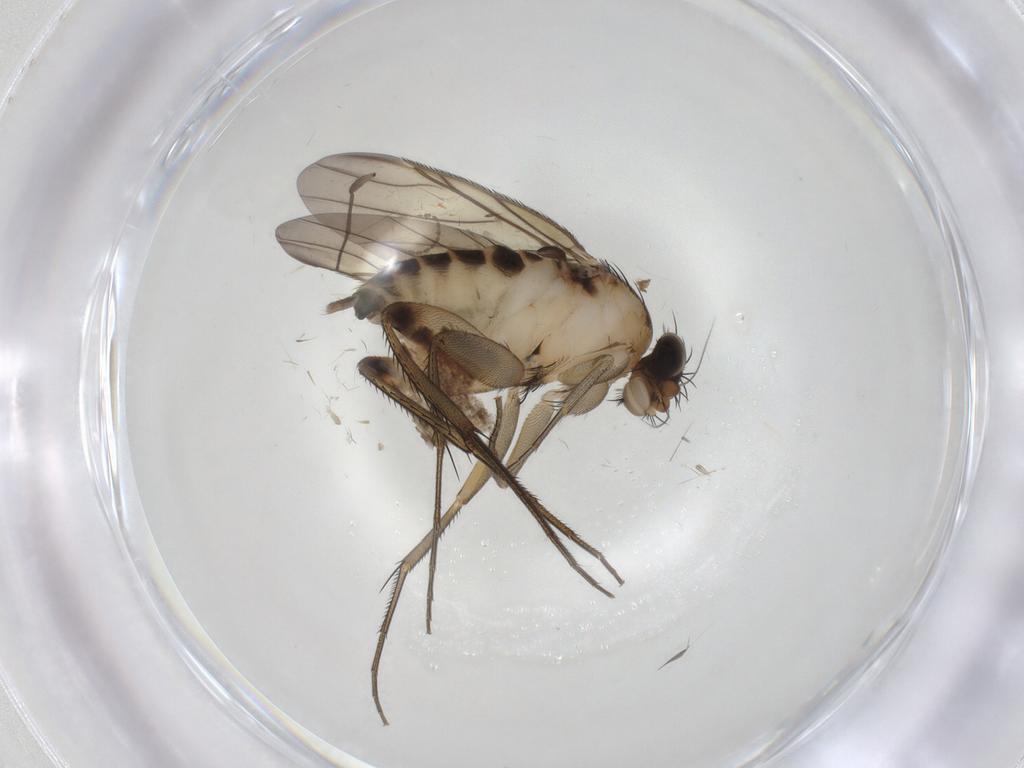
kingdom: Animalia
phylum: Arthropoda
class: Insecta
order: Diptera
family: Phoridae
